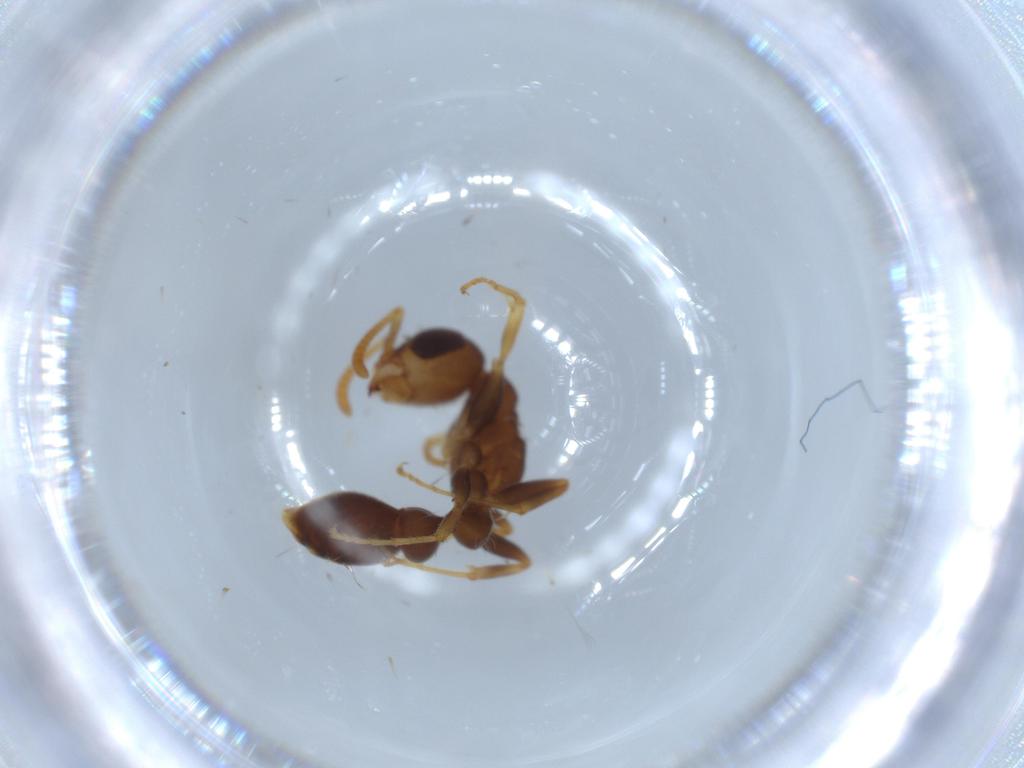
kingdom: Animalia
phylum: Arthropoda
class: Insecta
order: Hymenoptera
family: Formicidae
